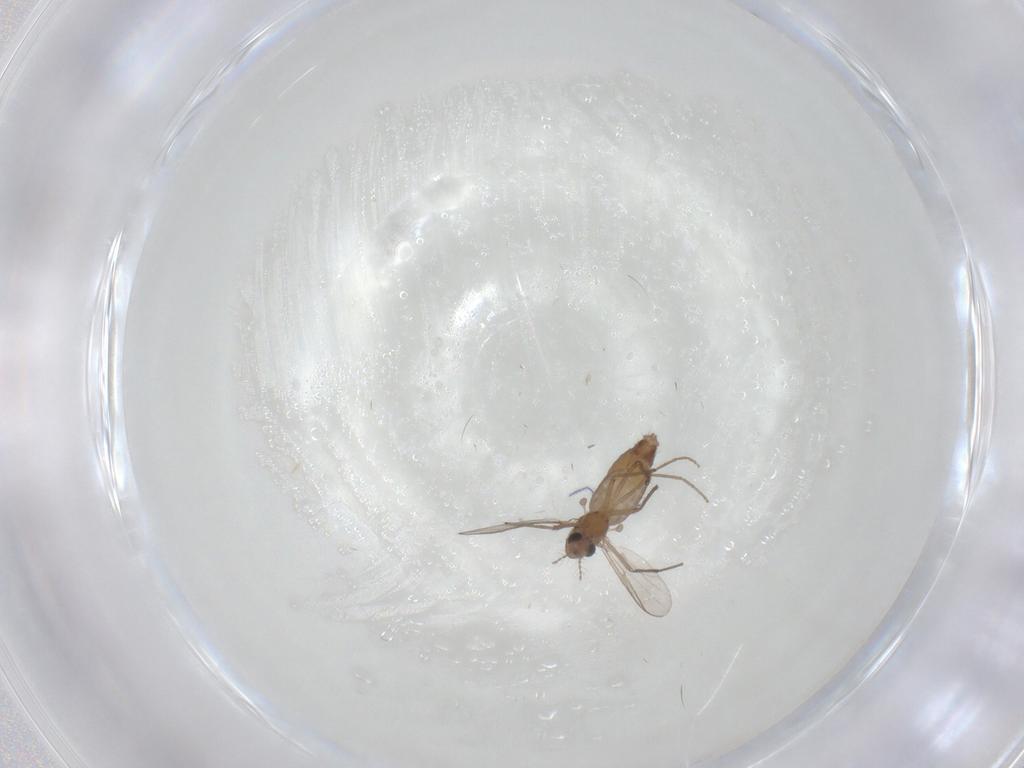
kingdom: Animalia
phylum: Arthropoda
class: Insecta
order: Diptera
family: Chironomidae
